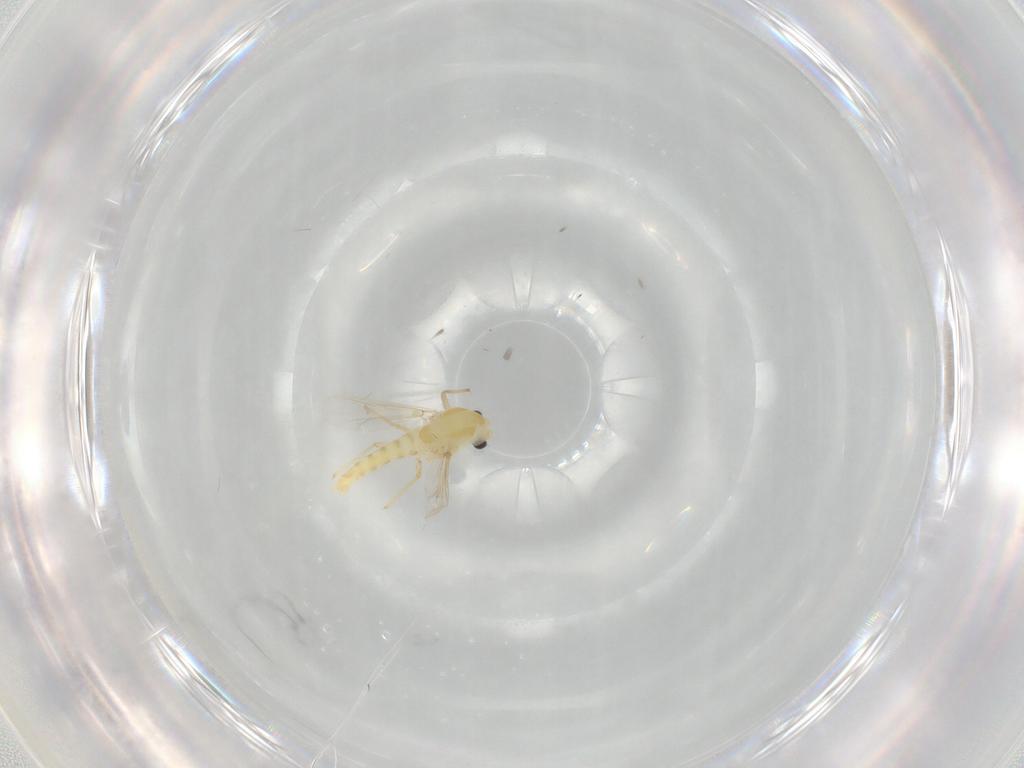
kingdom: Animalia
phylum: Arthropoda
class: Insecta
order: Diptera
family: Chironomidae
